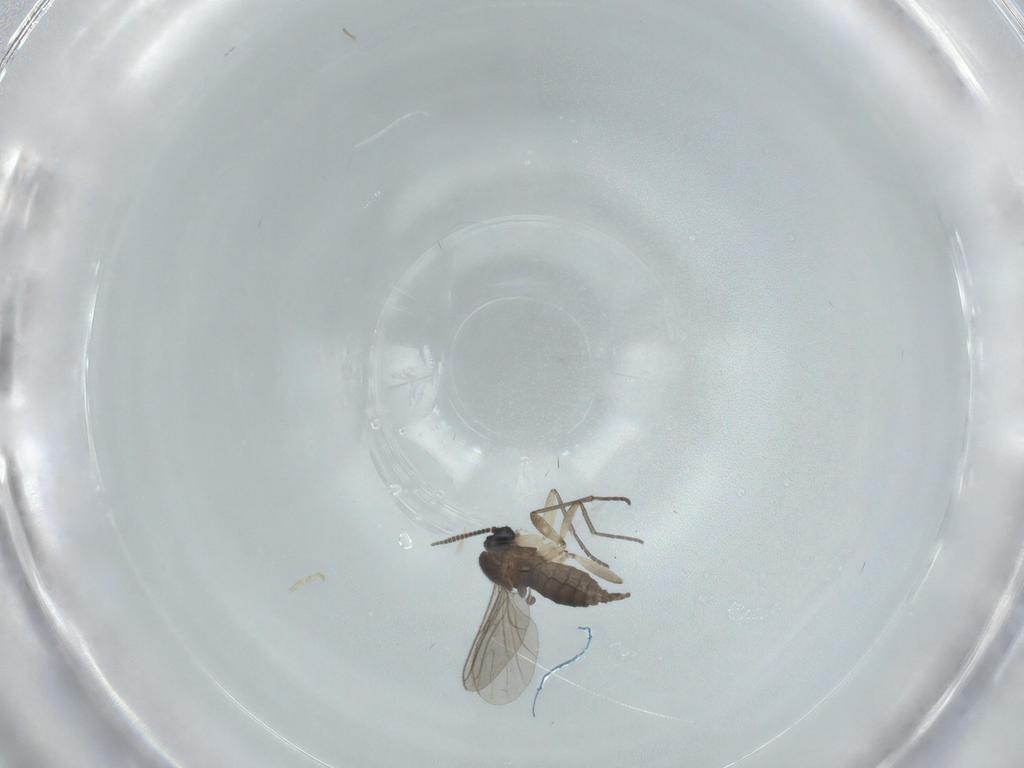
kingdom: Animalia
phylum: Arthropoda
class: Insecta
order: Diptera
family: Sciaridae
